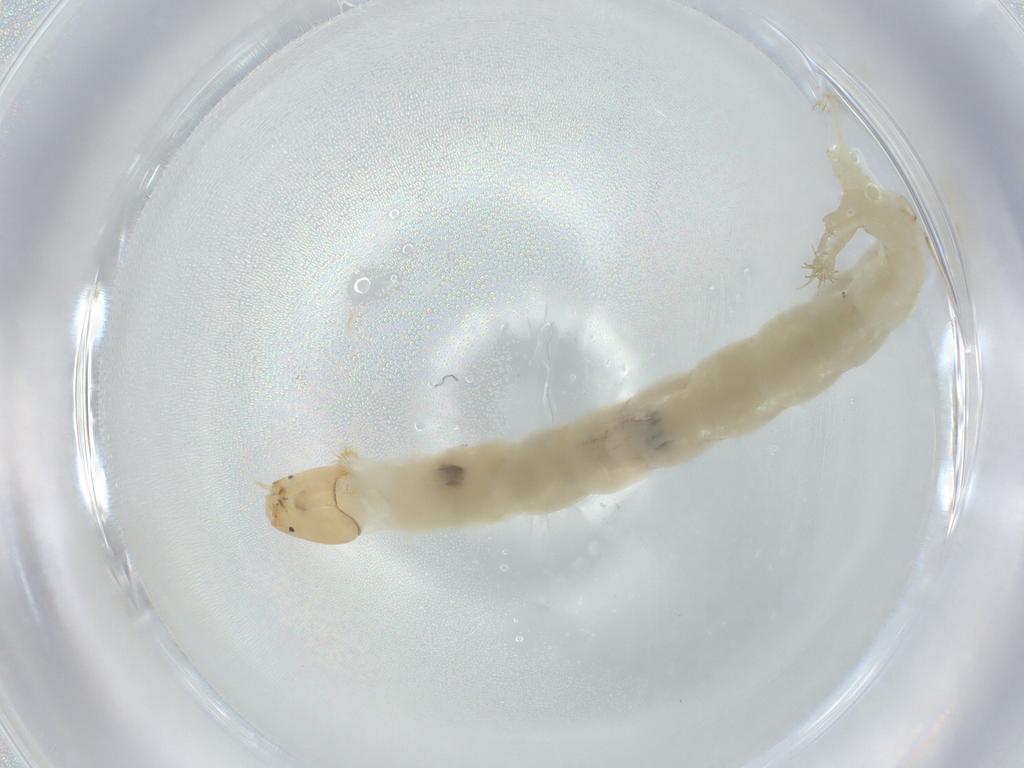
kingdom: Animalia
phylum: Arthropoda
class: Insecta
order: Diptera
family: Chironomidae
